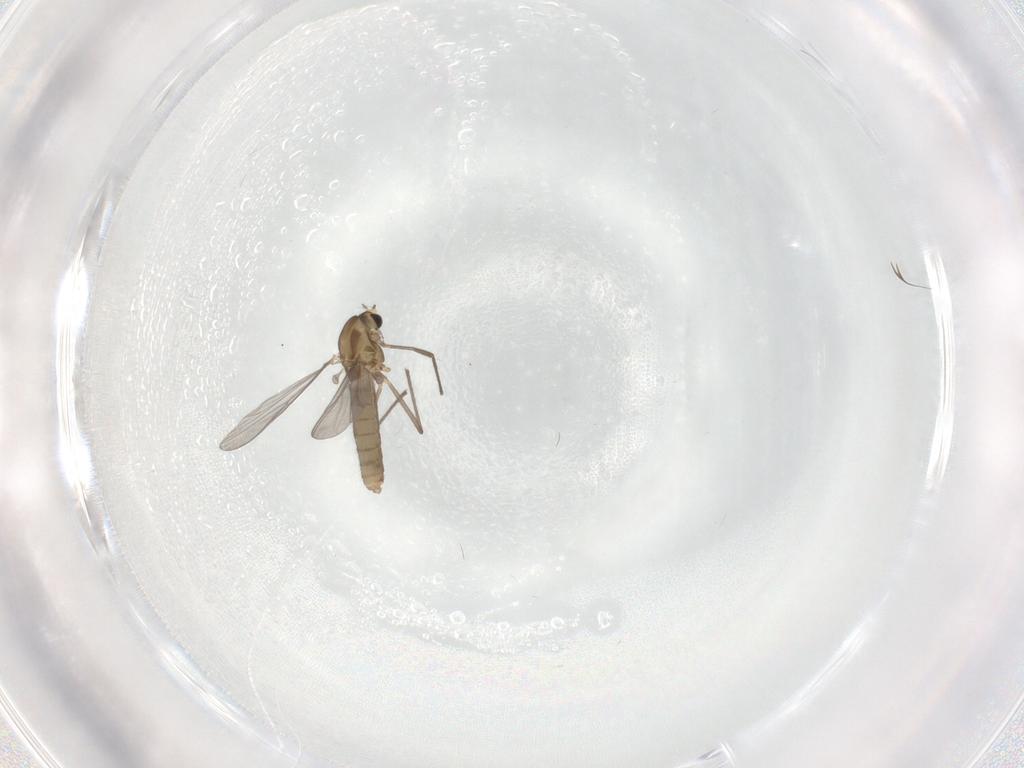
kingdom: Animalia
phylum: Arthropoda
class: Insecta
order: Diptera
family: Chironomidae
